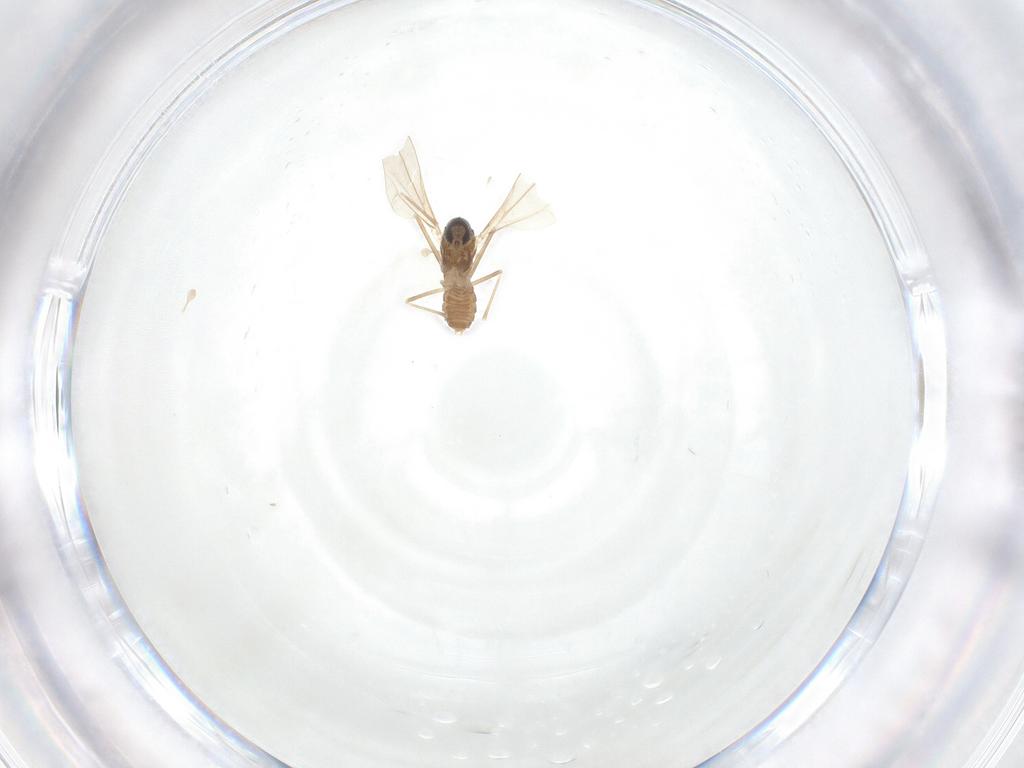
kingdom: Animalia
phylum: Arthropoda
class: Insecta
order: Diptera
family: Cecidomyiidae
